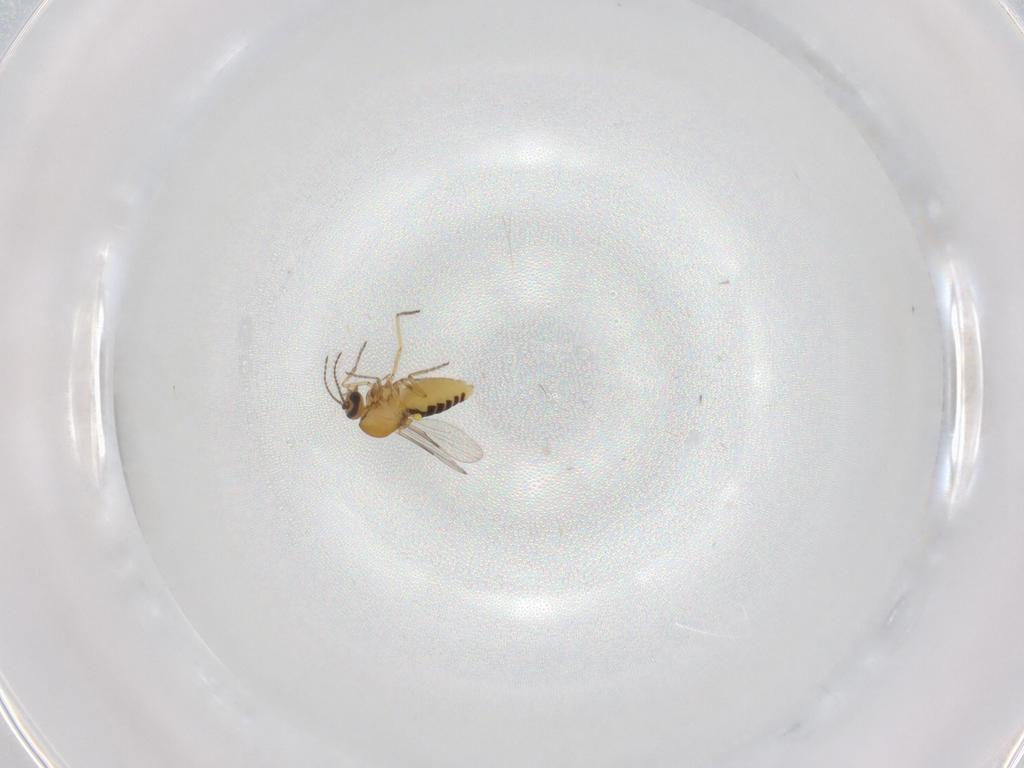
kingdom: Animalia
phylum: Arthropoda
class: Insecta
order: Diptera
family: Ceratopogonidae
